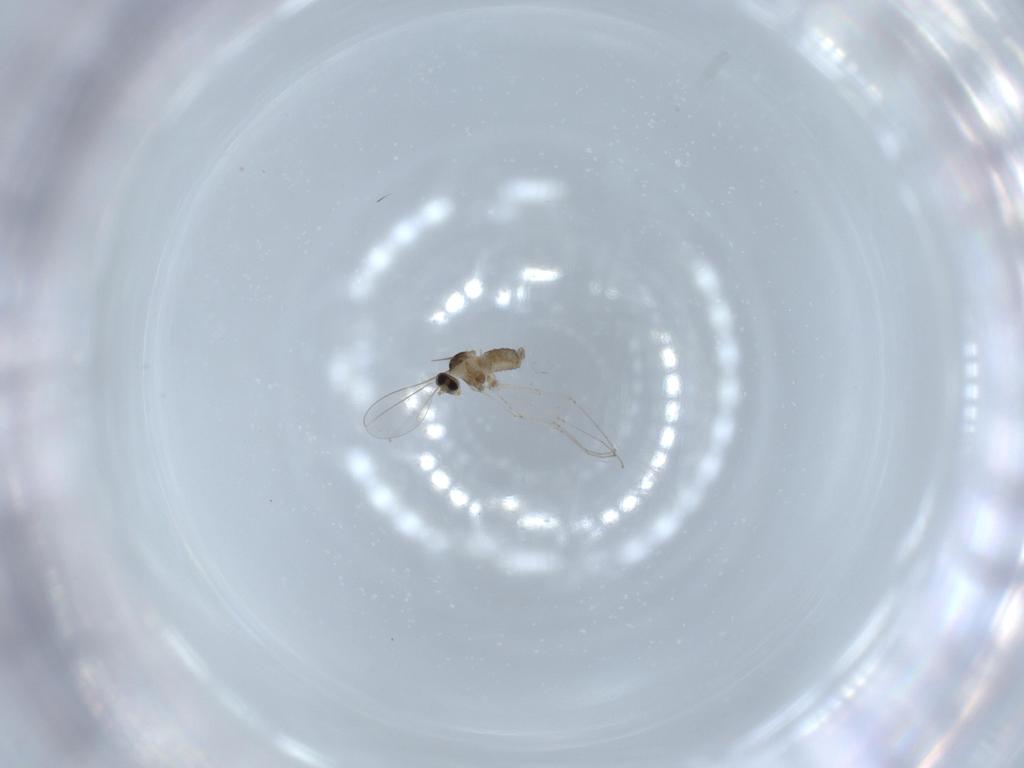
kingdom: Animalia
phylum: Arthropoda
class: Insecta
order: Diptera
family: Cecidomyiidae
